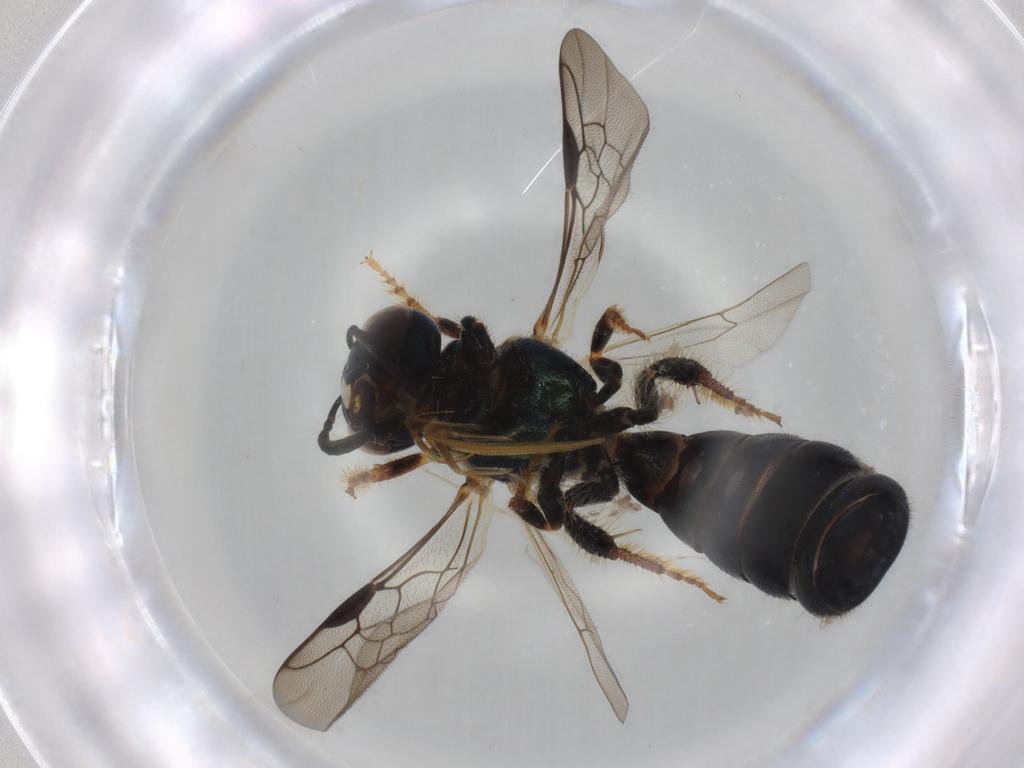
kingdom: Animalia
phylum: Arthropoda
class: Insecta
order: Hymenoptera
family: Apidae
